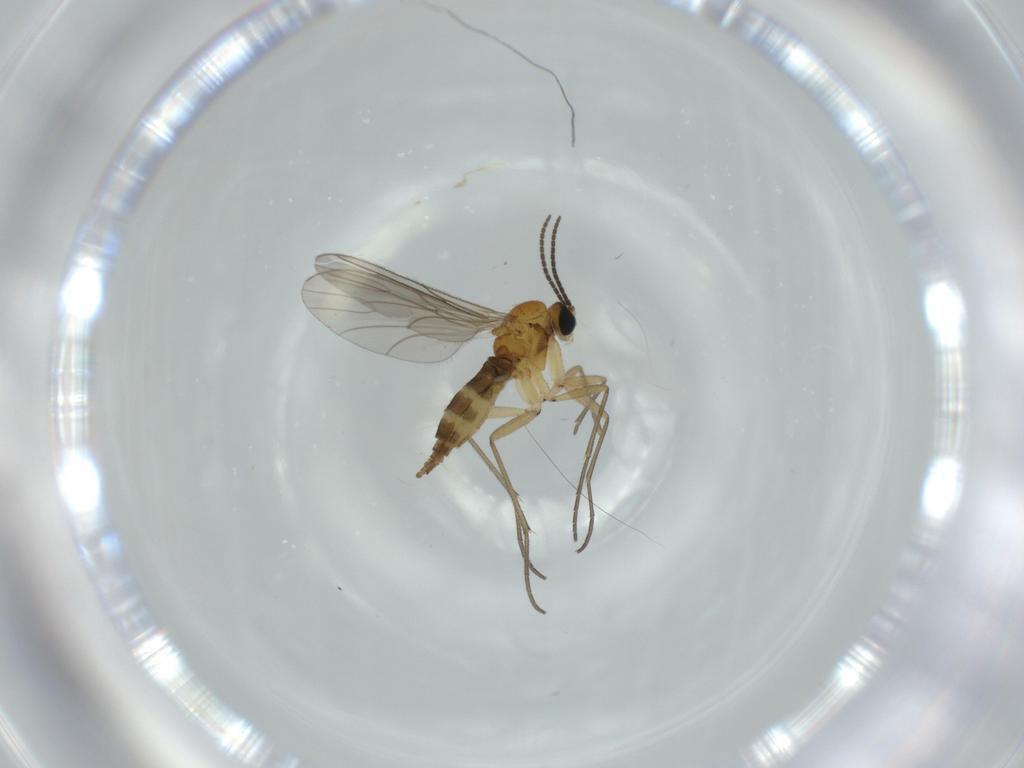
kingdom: Animalia
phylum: Arthropoda
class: Insecta
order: Diptera
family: Sciaridae
